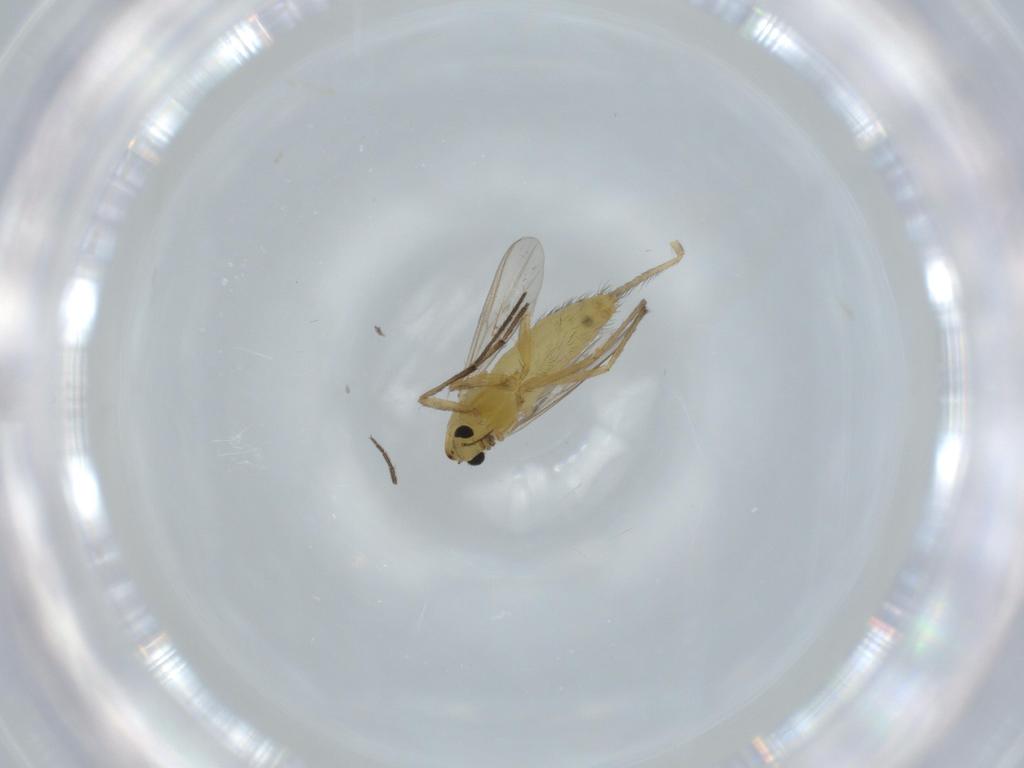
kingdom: Animalia
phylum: Arthropoda
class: Insecta
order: Diptera
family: Chironomidae
